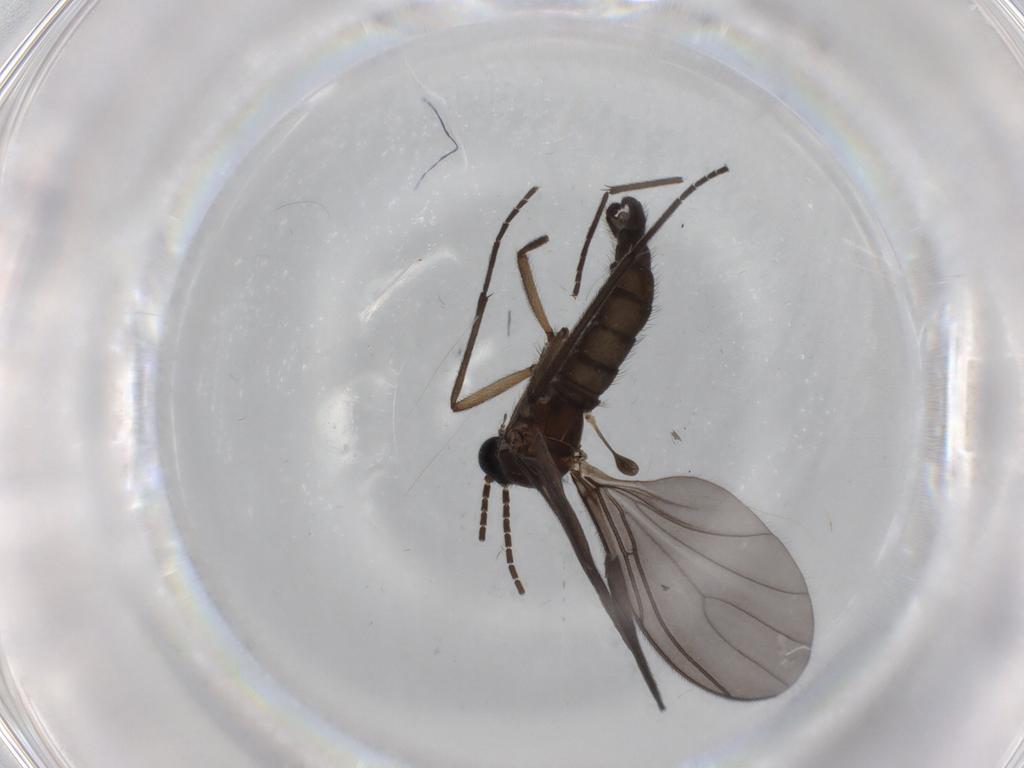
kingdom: Animalia
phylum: Arthropoda
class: Insecta
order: Diptera
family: Sciaridae
